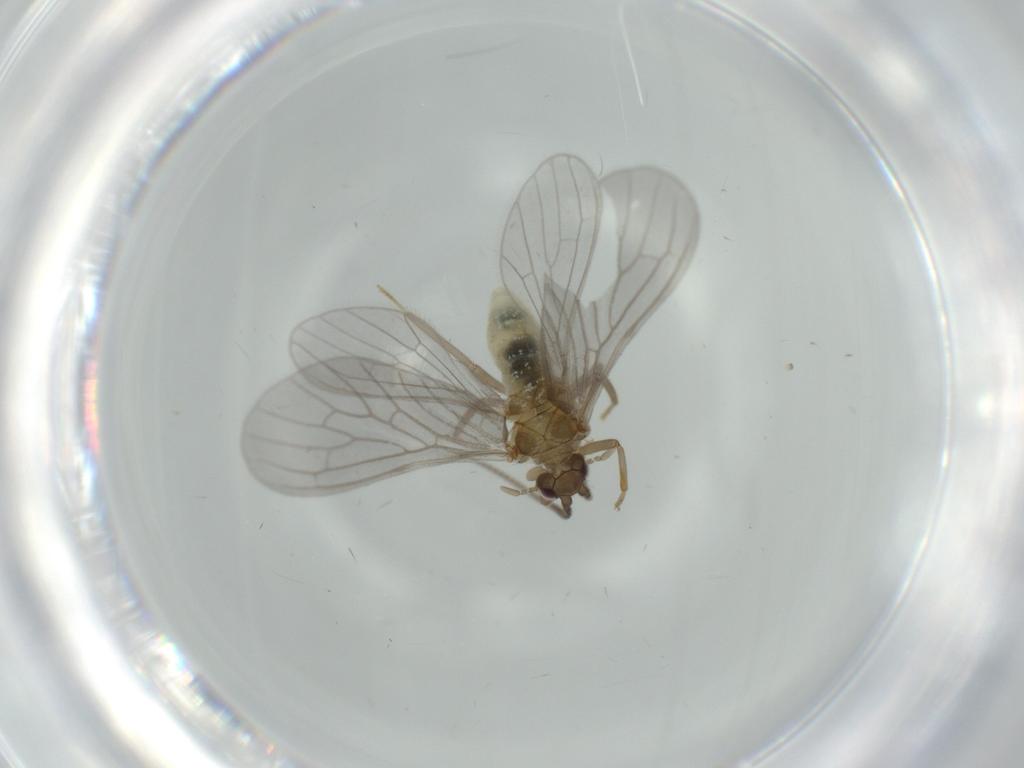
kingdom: Animalia
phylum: Arthropoda
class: Insecta
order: Neuroptera
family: Coniopterygidae
